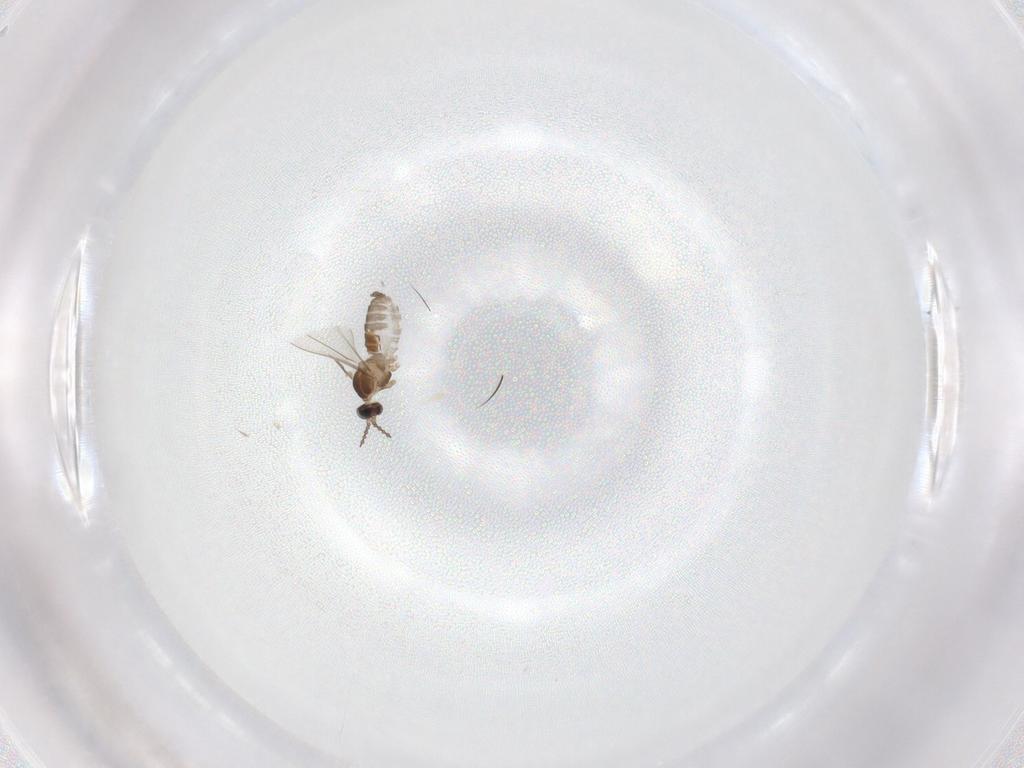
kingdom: Animalia
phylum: Arthropoda
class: Insecta
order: Diptera
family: Cecidomyiidae
